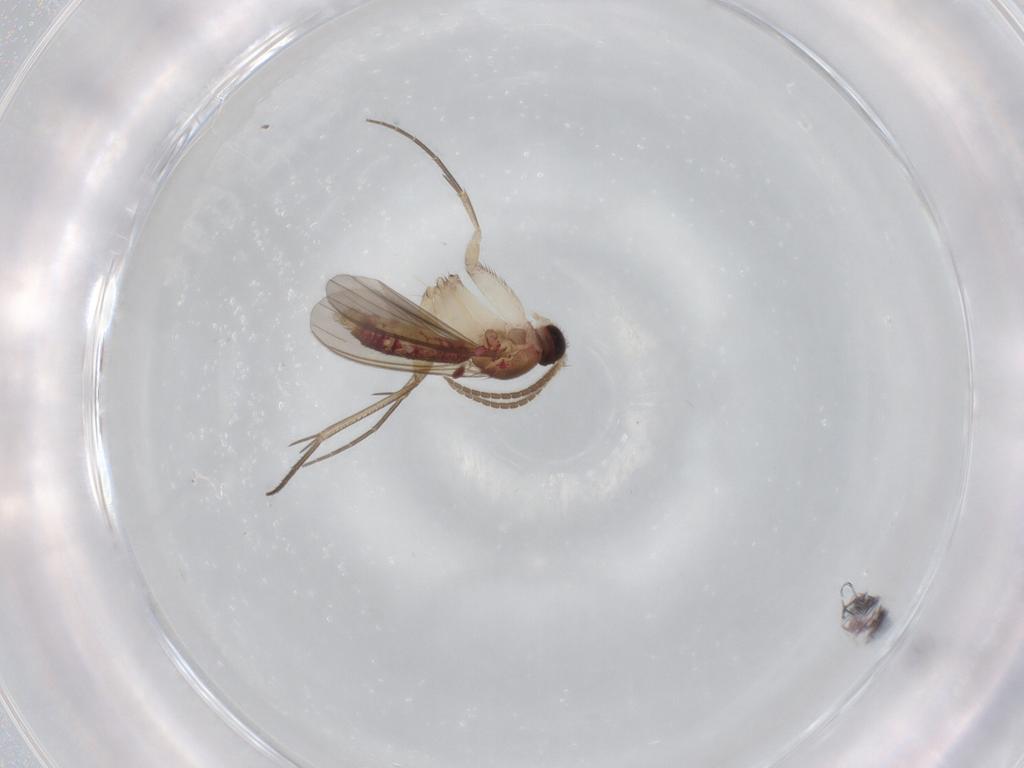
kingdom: Animalia
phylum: Arthropoda
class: Insecta
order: Diptera
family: Mycetophilidae
